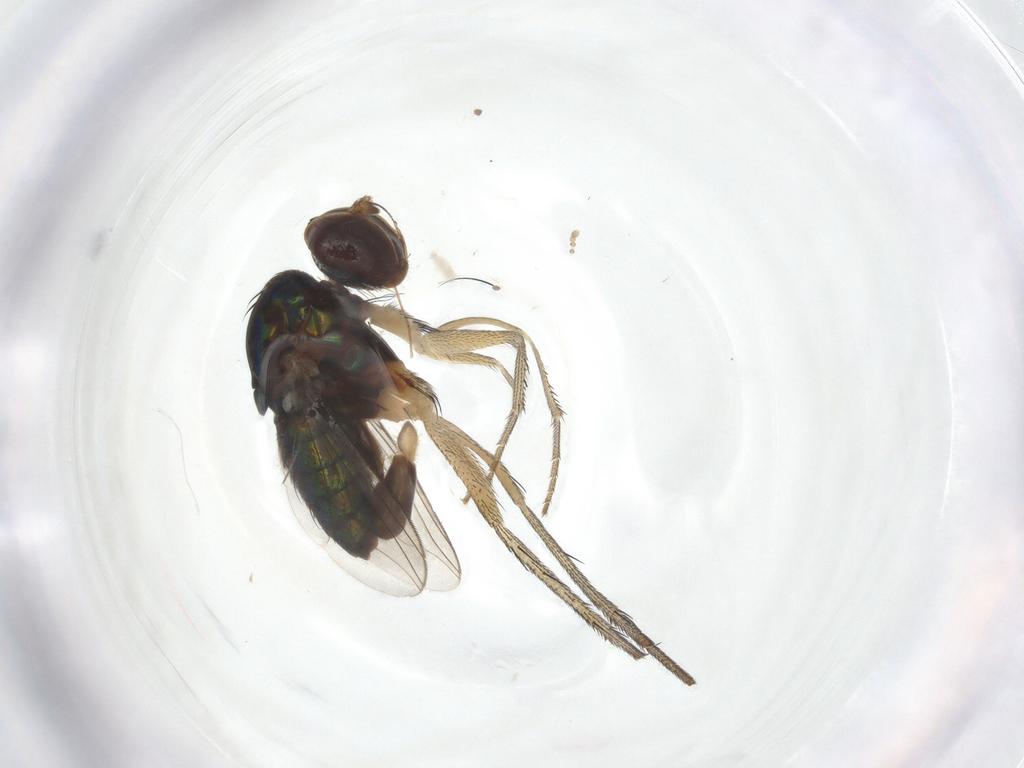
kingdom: Animalia
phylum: Arthropoda
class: Insecta
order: Diptera
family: Dolichopodidae
